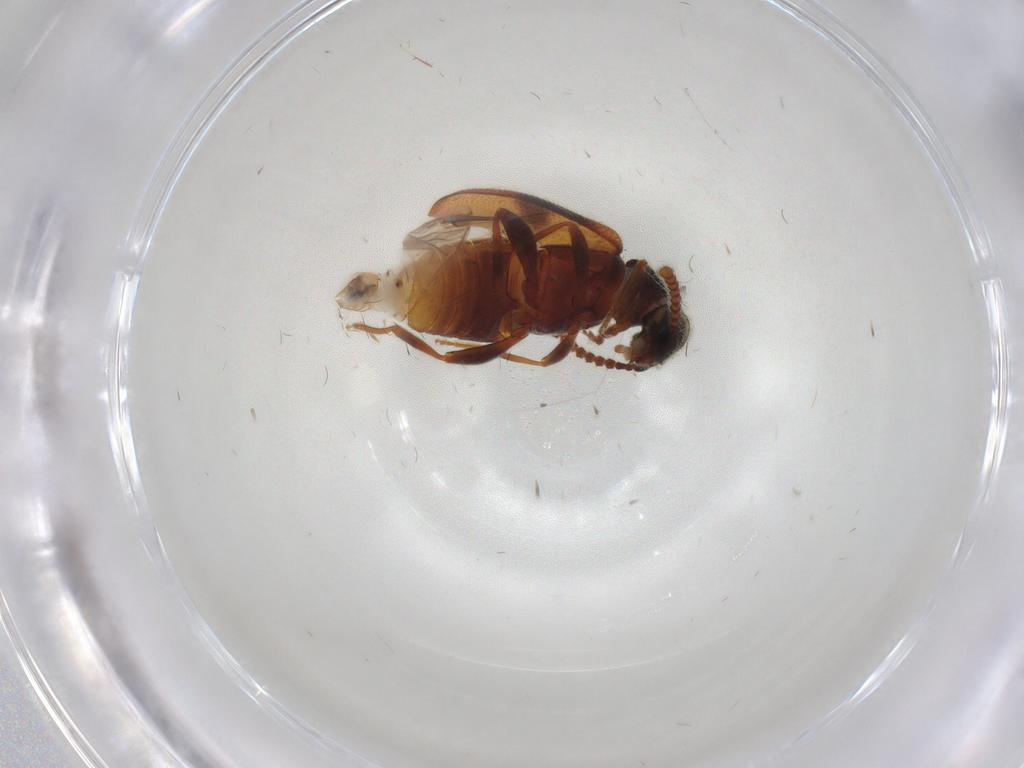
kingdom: Animalia
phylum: Arthropoda
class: Insecta
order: Coleoptera
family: Aderidae
